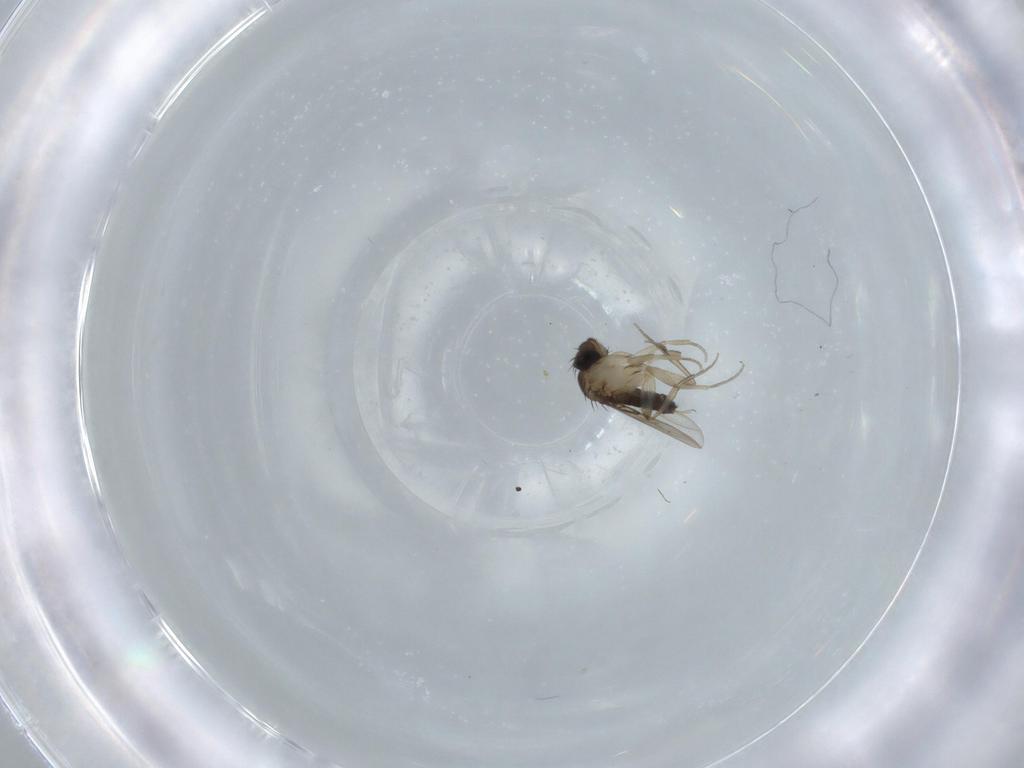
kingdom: Animalia
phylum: Arthropoda
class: Insecta
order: Diptera
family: Phoridae
